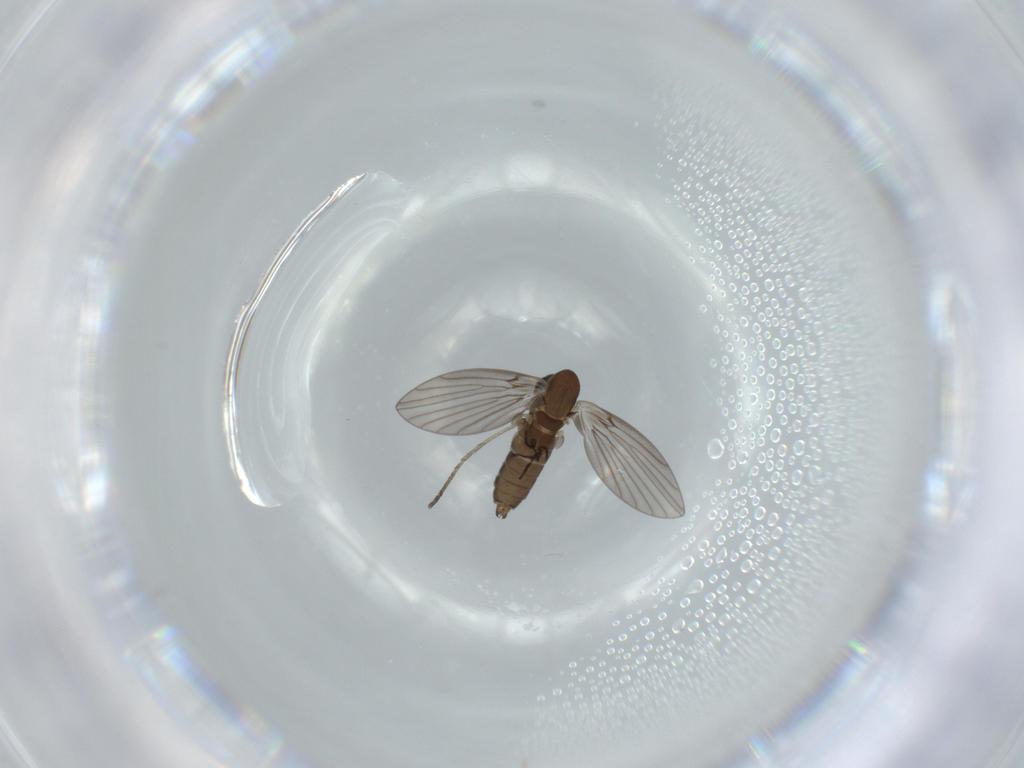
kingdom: Animalia
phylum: Arthropoda
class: Insecta
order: Diptera
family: Psychodidae
